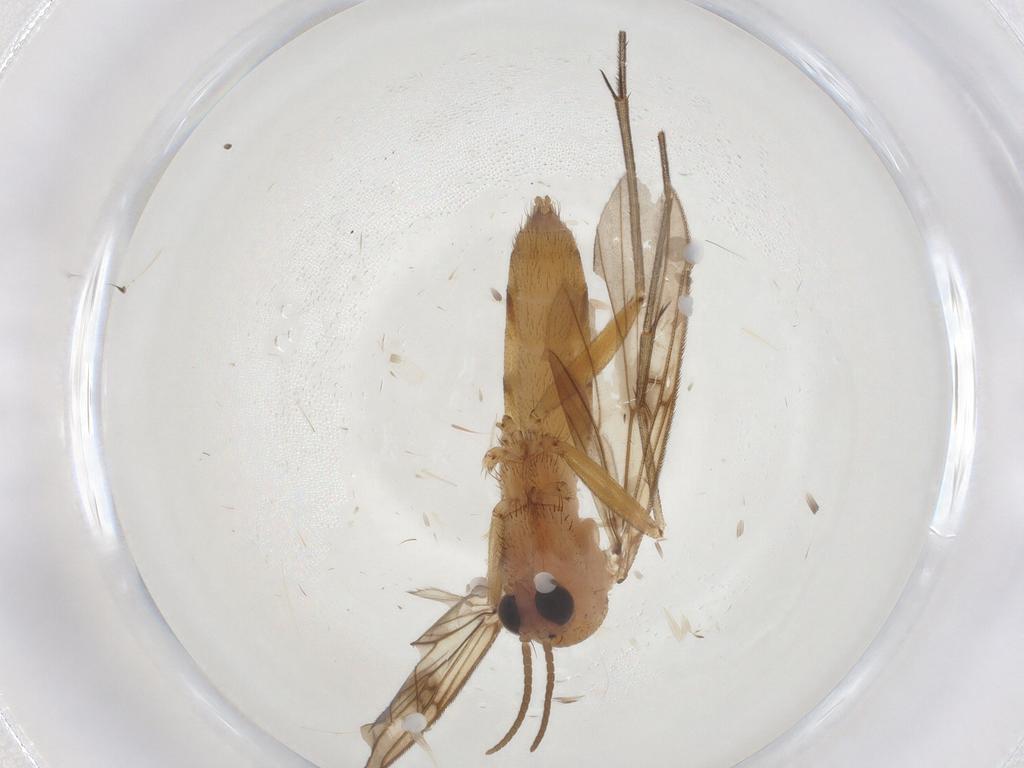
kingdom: Animalia
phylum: Arthropoda
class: Insecta
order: Diptera
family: Mycetophilidae
